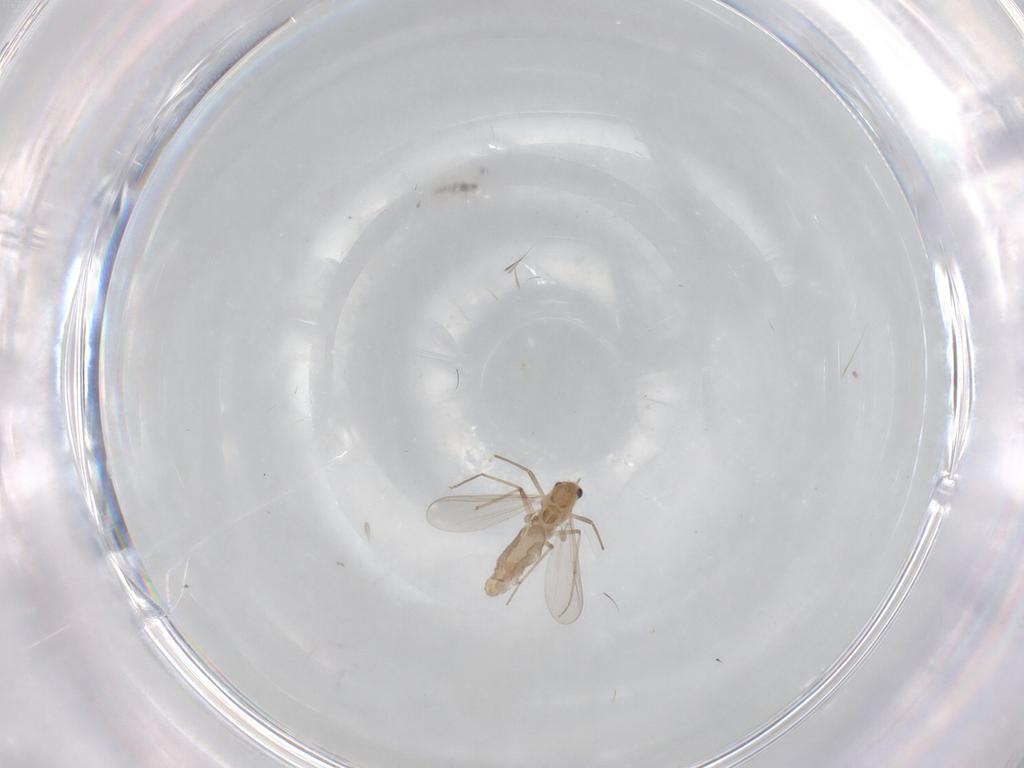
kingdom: Animalia
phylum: Arthropoda
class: Insecta
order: Diptera
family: Psychodidae
